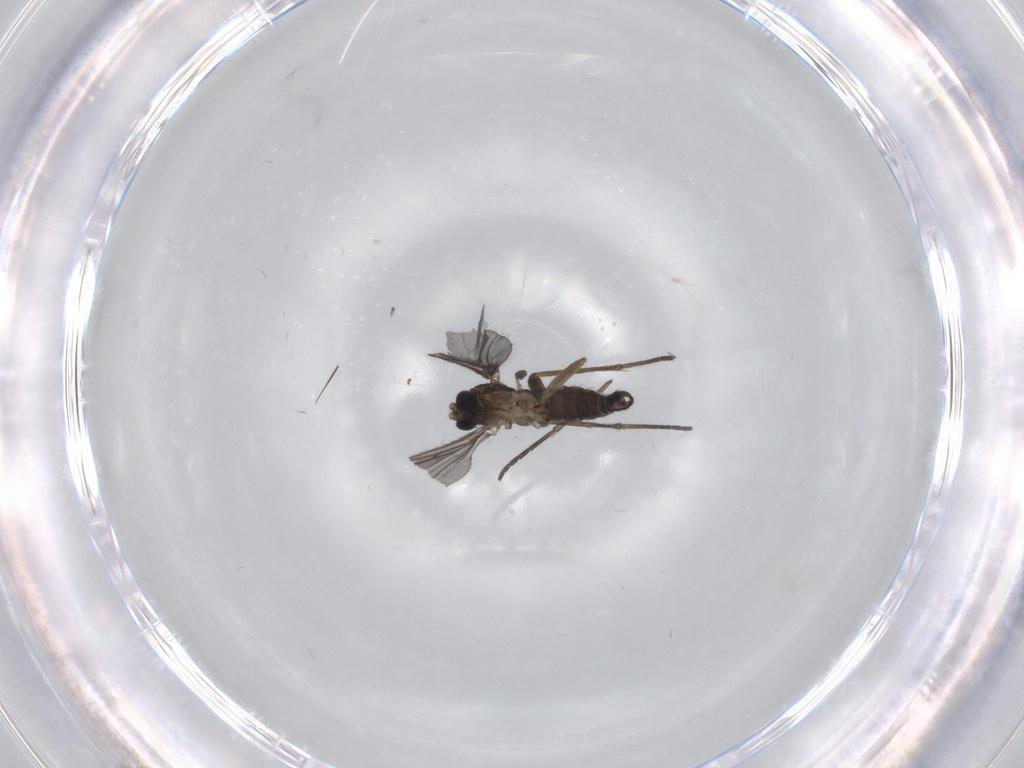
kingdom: Animalia
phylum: Arthropoda
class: Insecta
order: Diptera
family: Sciaridae
